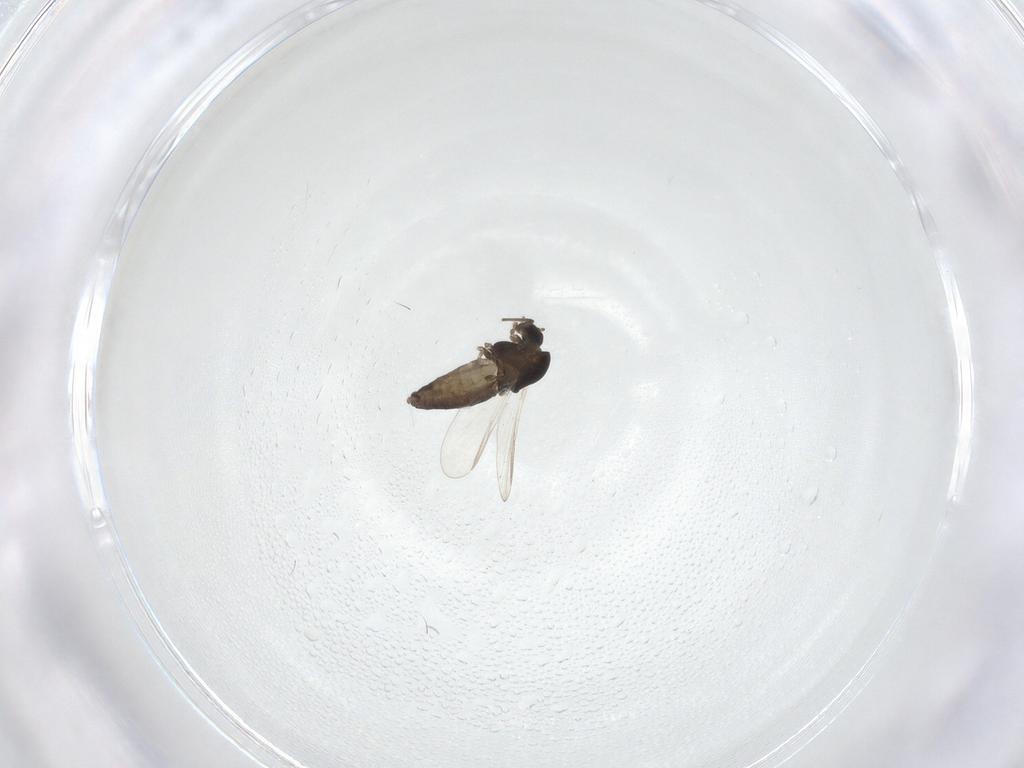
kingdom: Animalia
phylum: Arthropoda
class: Insecta
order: Diptera
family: Chironomidae
